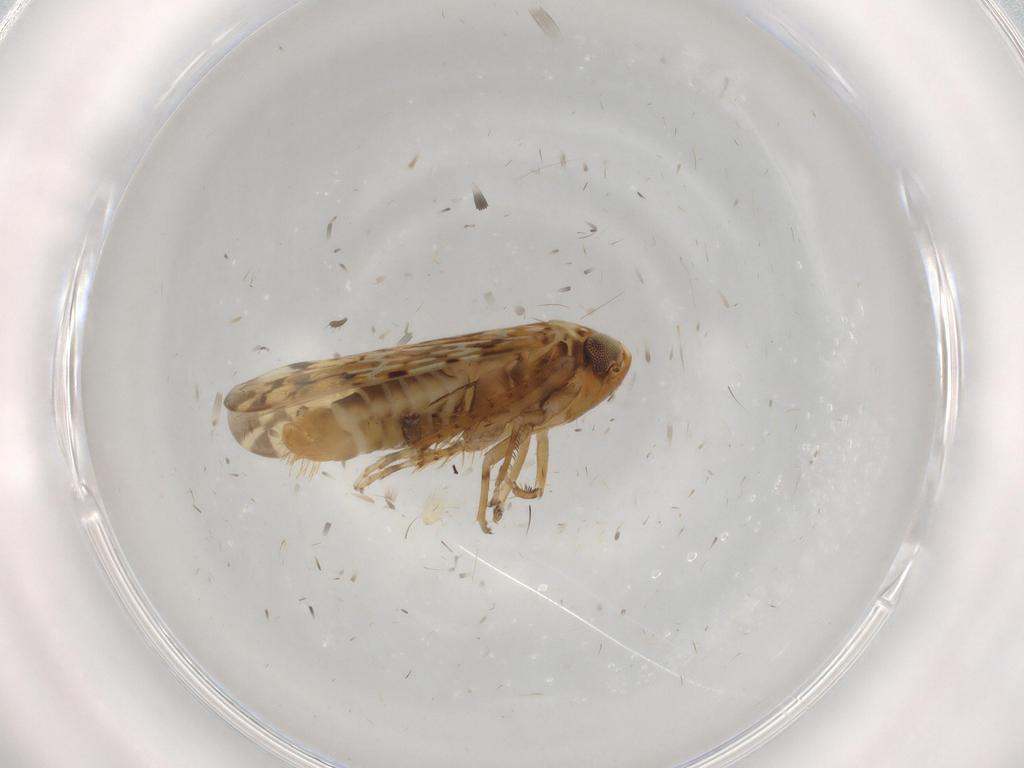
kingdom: Animalia
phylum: Arthropoda
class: Insecta
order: Hemiptera
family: Cicadellidae
